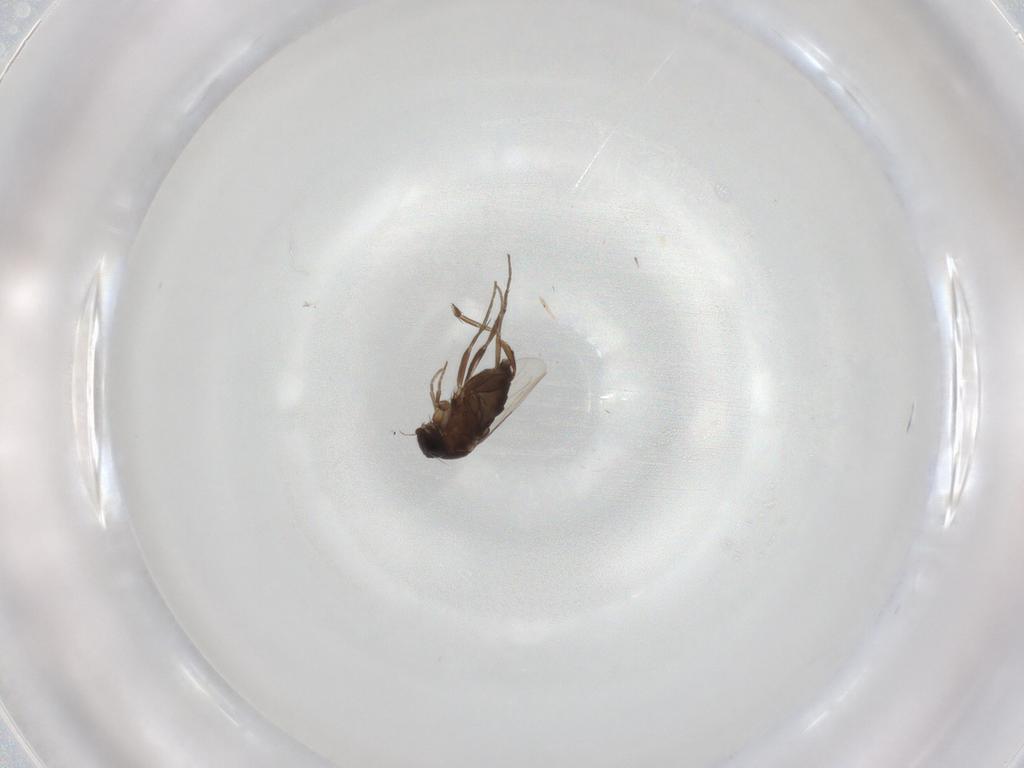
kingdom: Animalia
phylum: Arthropoda
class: Insecta
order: Diptera
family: Phoridae
